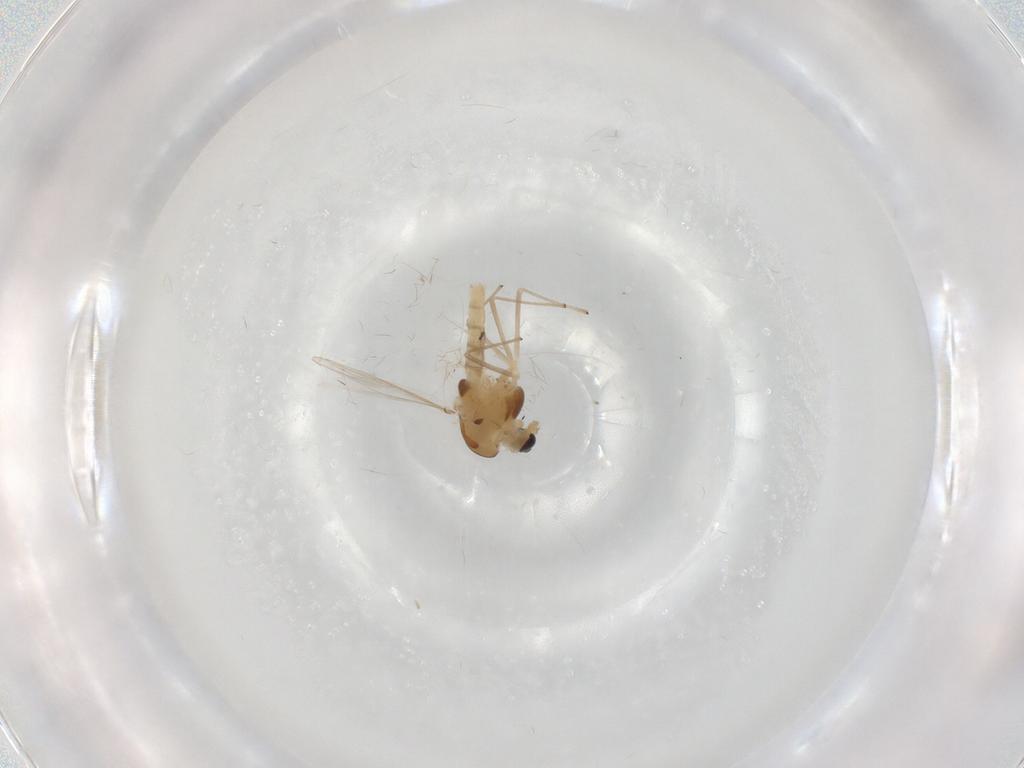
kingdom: Animalia
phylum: Arthropoda
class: Insecta
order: Diptera
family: Chironomidae
